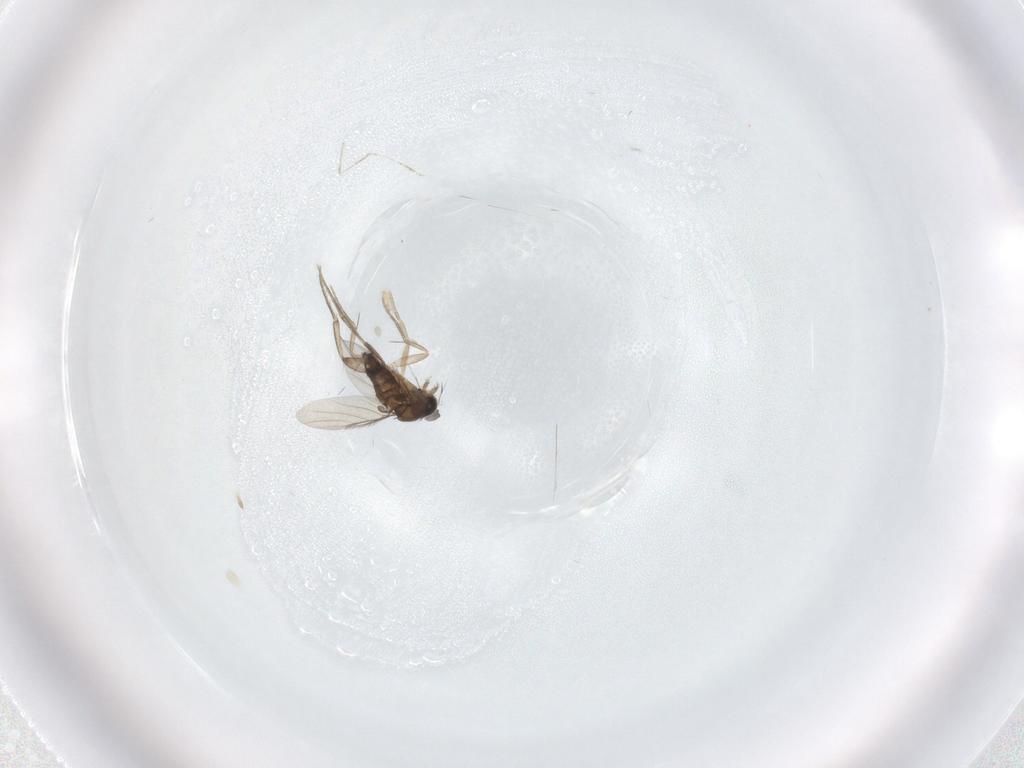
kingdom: Animalia
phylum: Arthropoda
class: Insecta
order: Diptera
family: Phoridae
